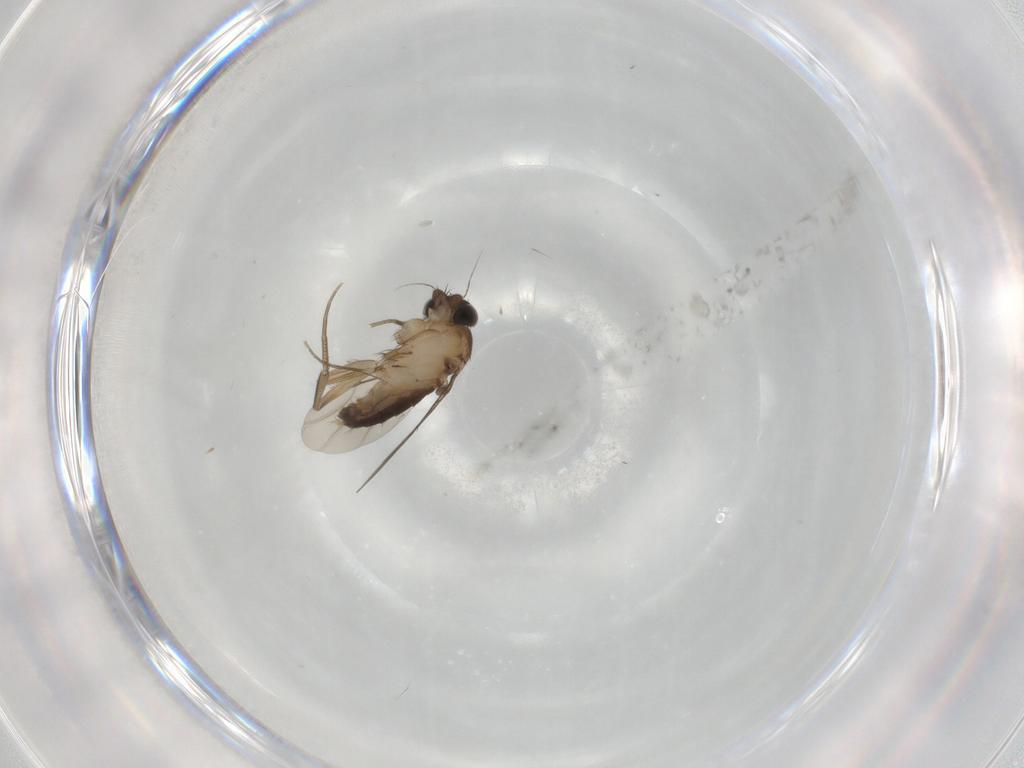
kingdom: Animalia
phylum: Arthropoda
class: Insecta
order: Diptera
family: Phoridae
